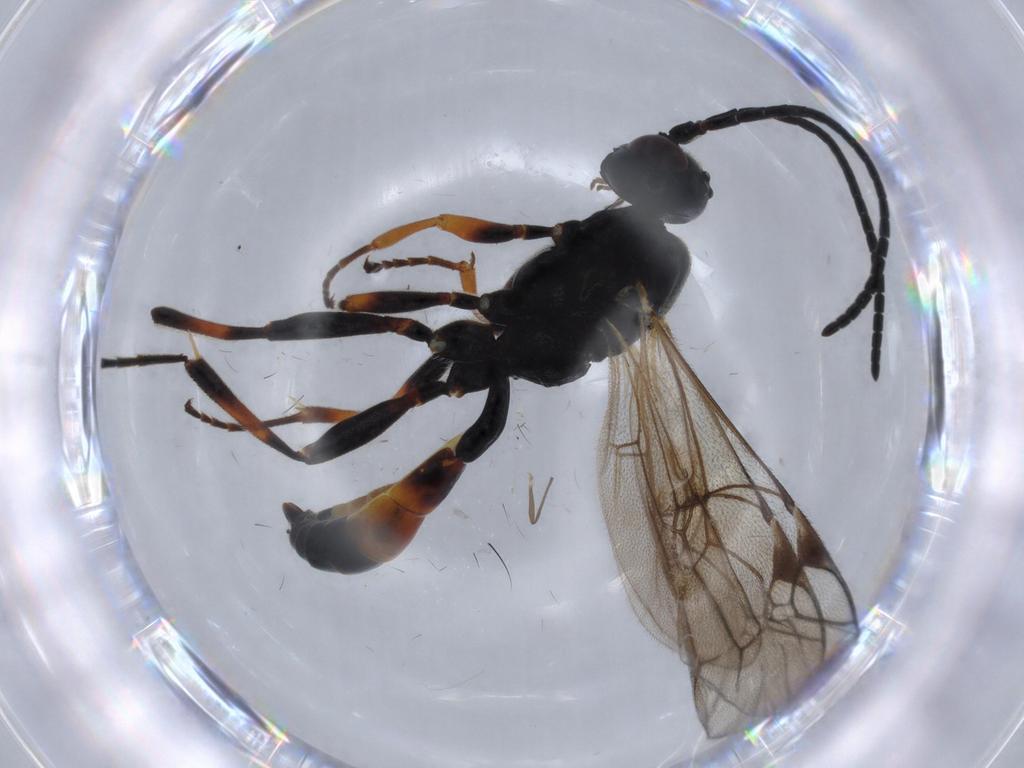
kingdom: Animalia
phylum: Arthropoda
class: Insecta
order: Hymenoptera
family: Ichneumonidae
